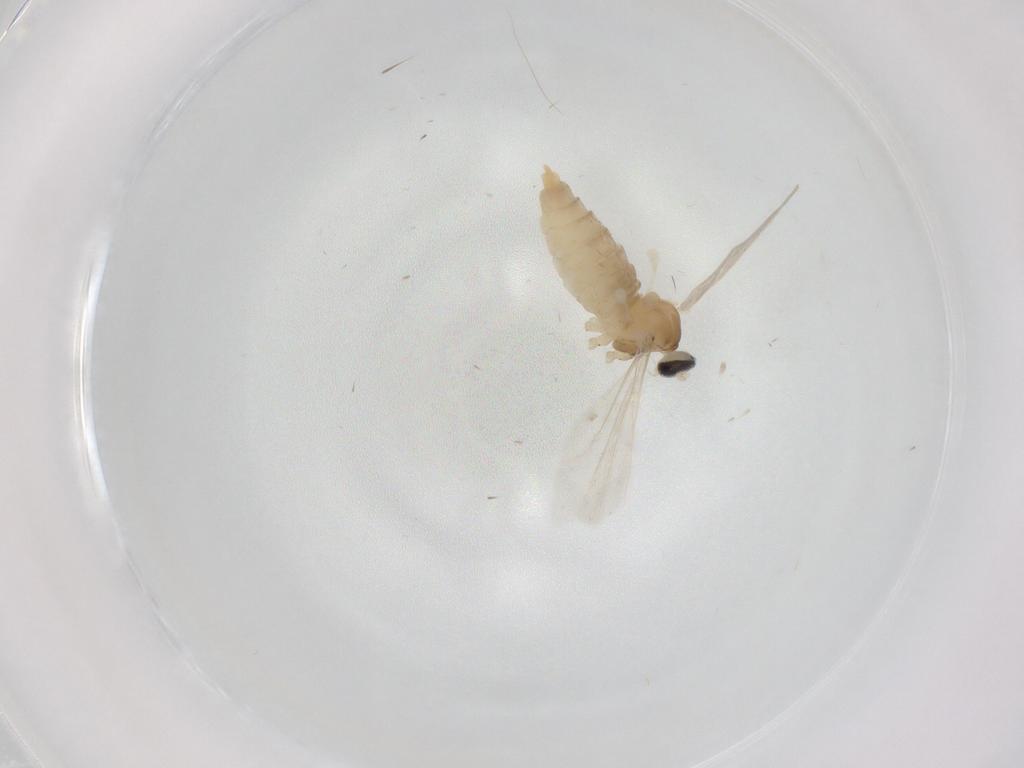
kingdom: Animalia
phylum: Arthropoda
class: Insecta
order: Diptera
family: Cecidomyiidae
